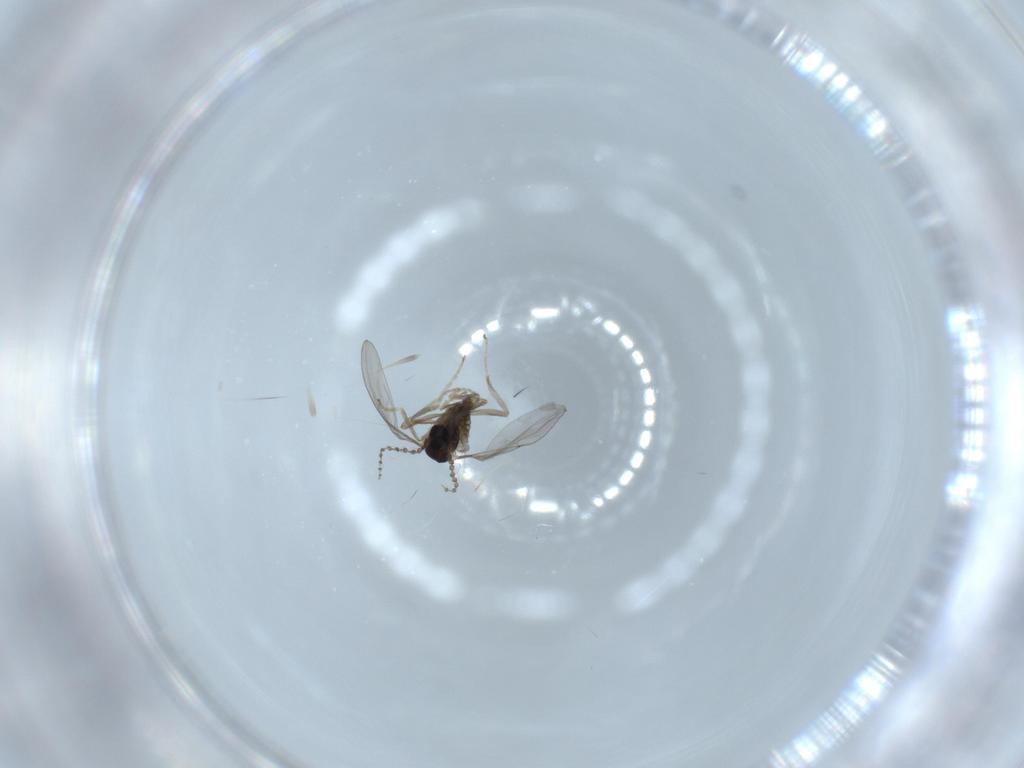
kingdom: Animalia
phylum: Arthropoda
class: Insecta
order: Diptera
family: Cecidomyiidae
